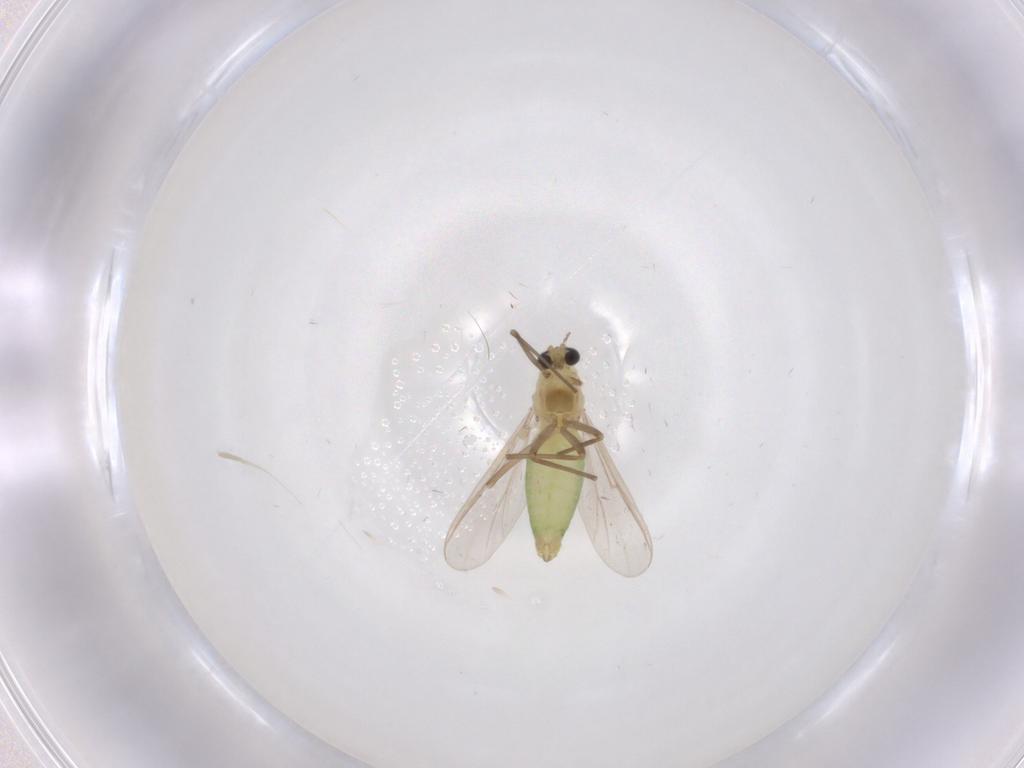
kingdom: Animalia
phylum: Arthropoda
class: Insecta
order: Diptera
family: Chironomidae
